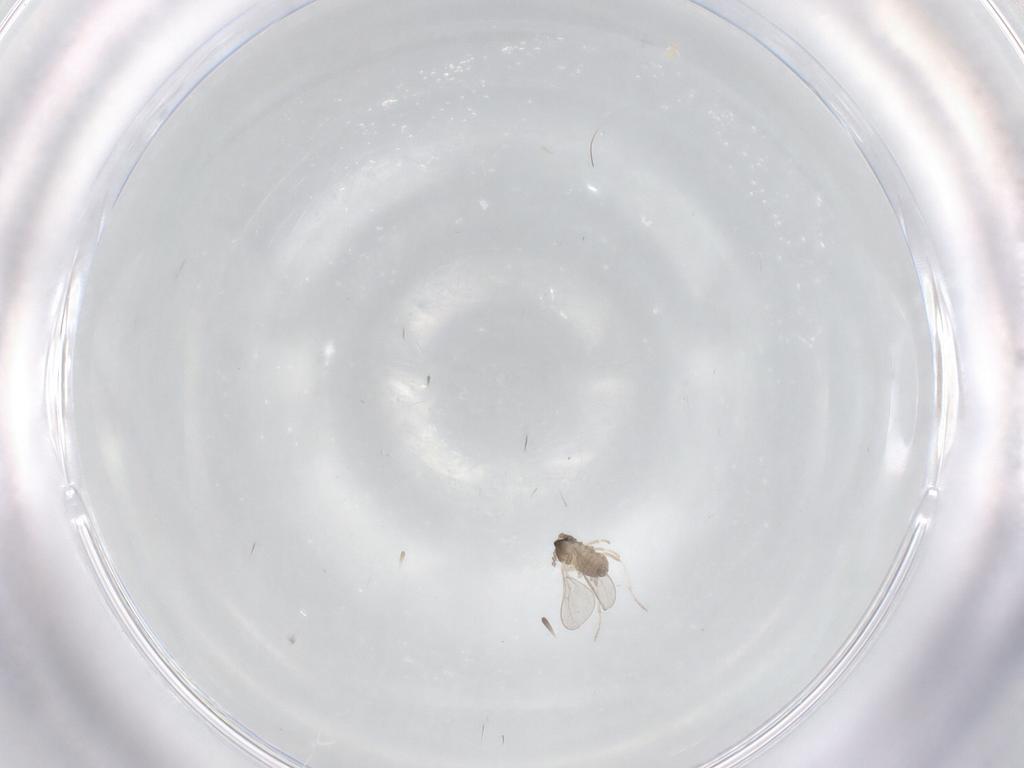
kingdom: Animalia
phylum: Arthropoda
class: Insecta
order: Diptera
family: Cecidomyiidae
